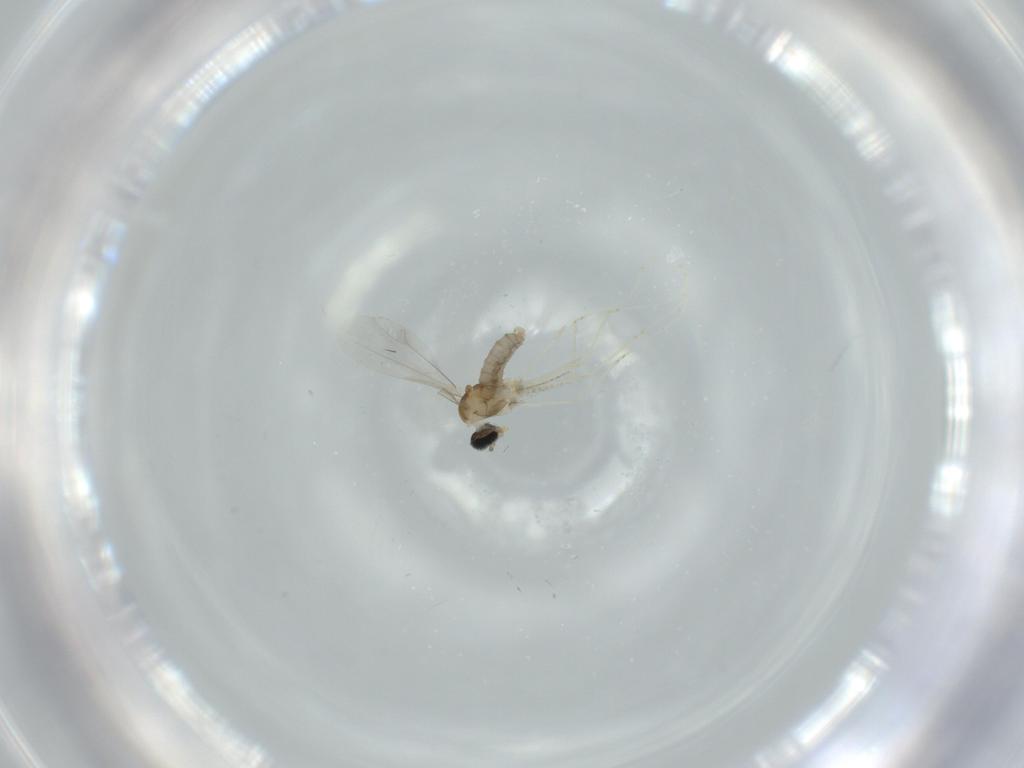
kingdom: Animalia
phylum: Arthropoda
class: Insecta
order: Diptera
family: Cecidomyiidae
